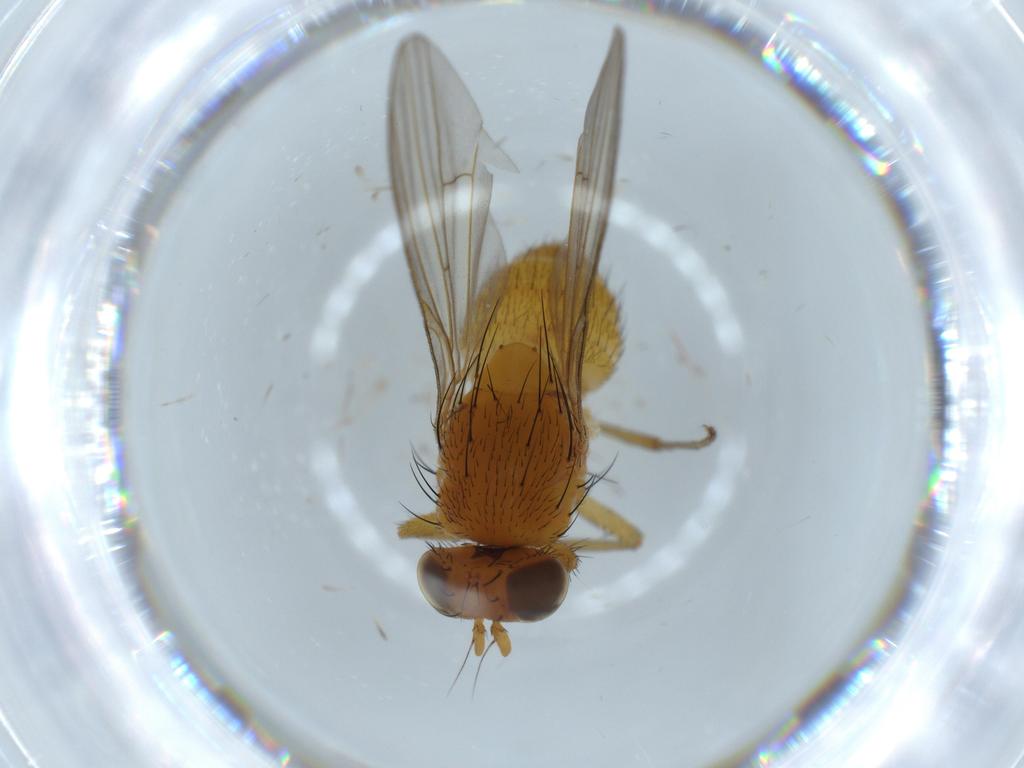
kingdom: Animalia
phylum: Arthropoda
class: Insecta
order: Diptera
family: Lauxaniidae
